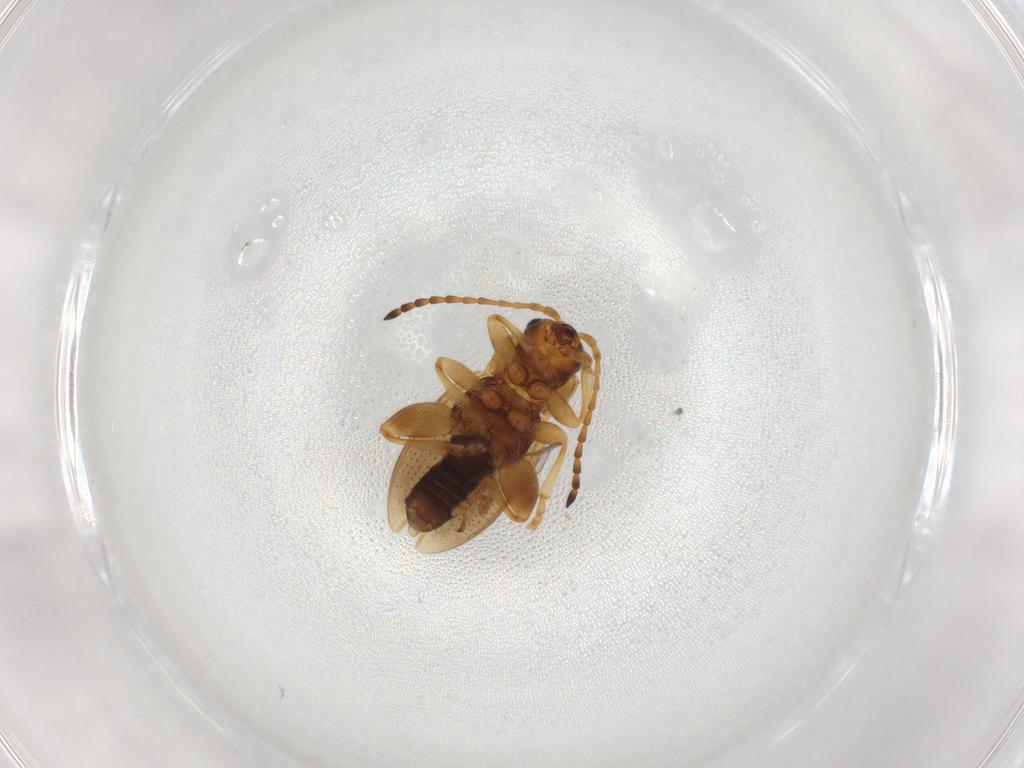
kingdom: Animalia
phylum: Arthropoda
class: Insecta
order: Coleoptera
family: Chrysomelidae
